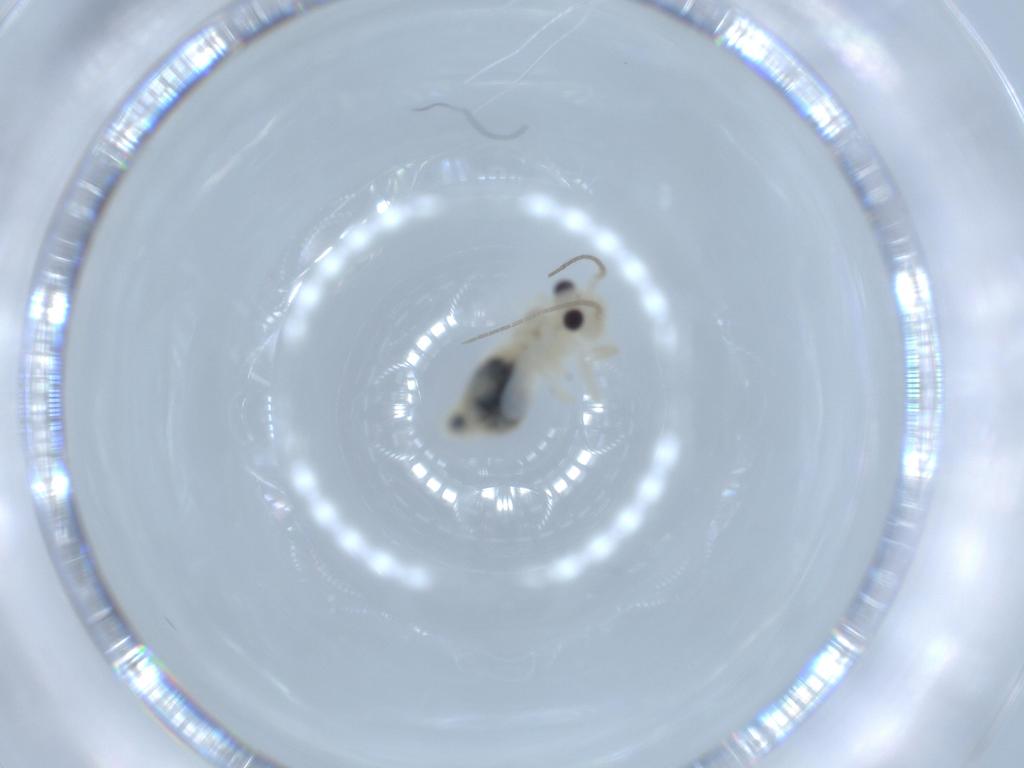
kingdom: Animalia
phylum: Arthropoda
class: Insecta
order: Psocodea
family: Caeciliusidae
